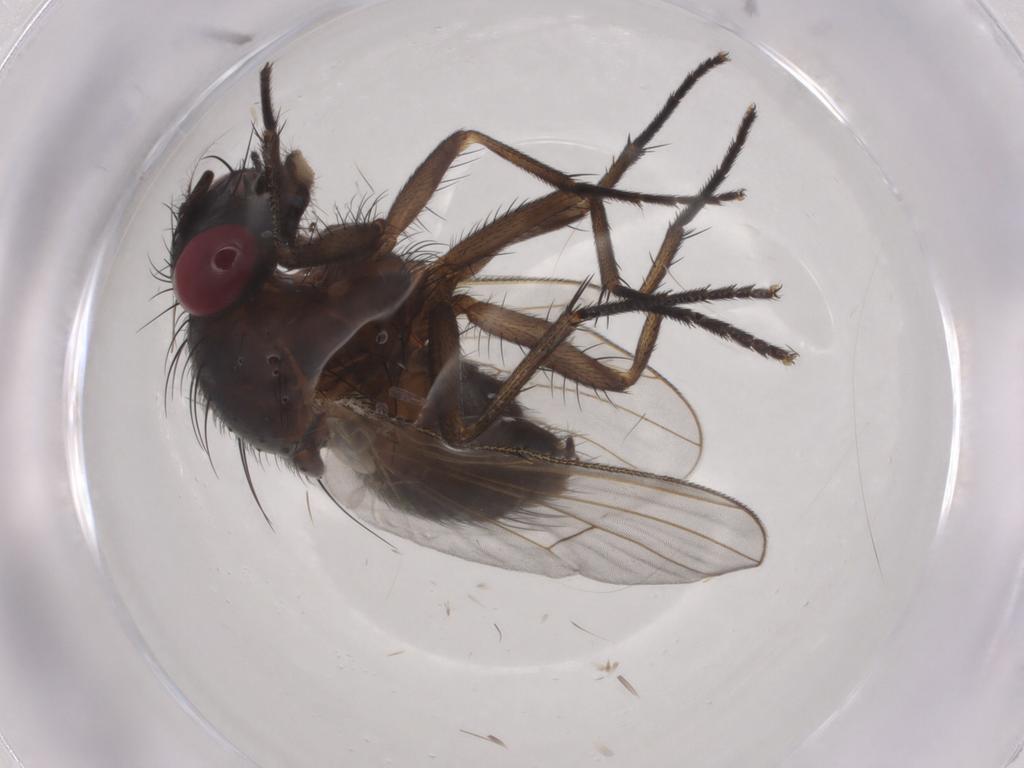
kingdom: Animalia
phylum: Arthropoda
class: Insecta
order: Diptera
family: Muscidae
